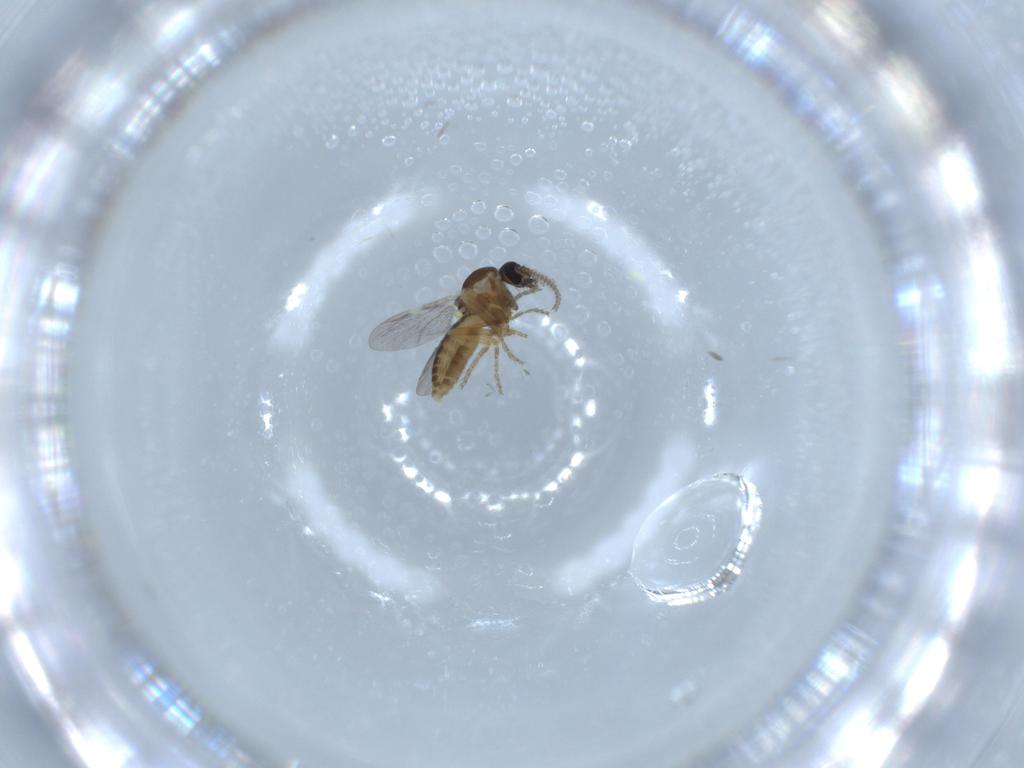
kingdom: Animalia
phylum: Arthropoda
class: Insecta
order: Diptera
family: Ceratopogonidae
